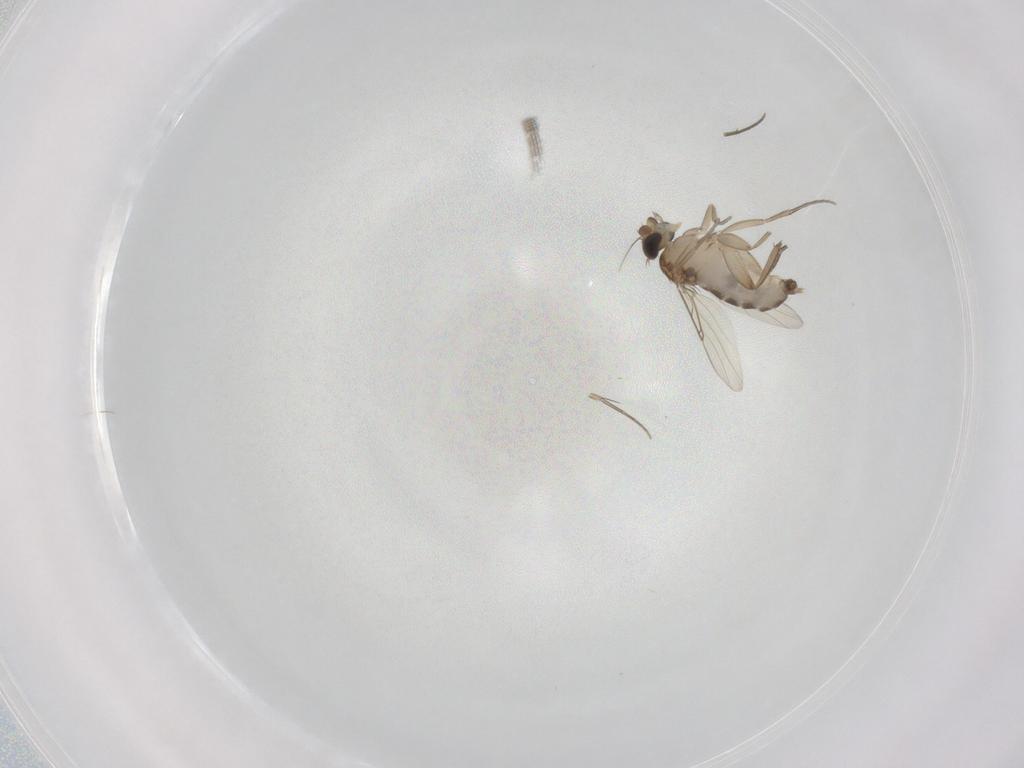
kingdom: Animalia
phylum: Arthropoda
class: Insecta
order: Diptera
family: Phoridae
